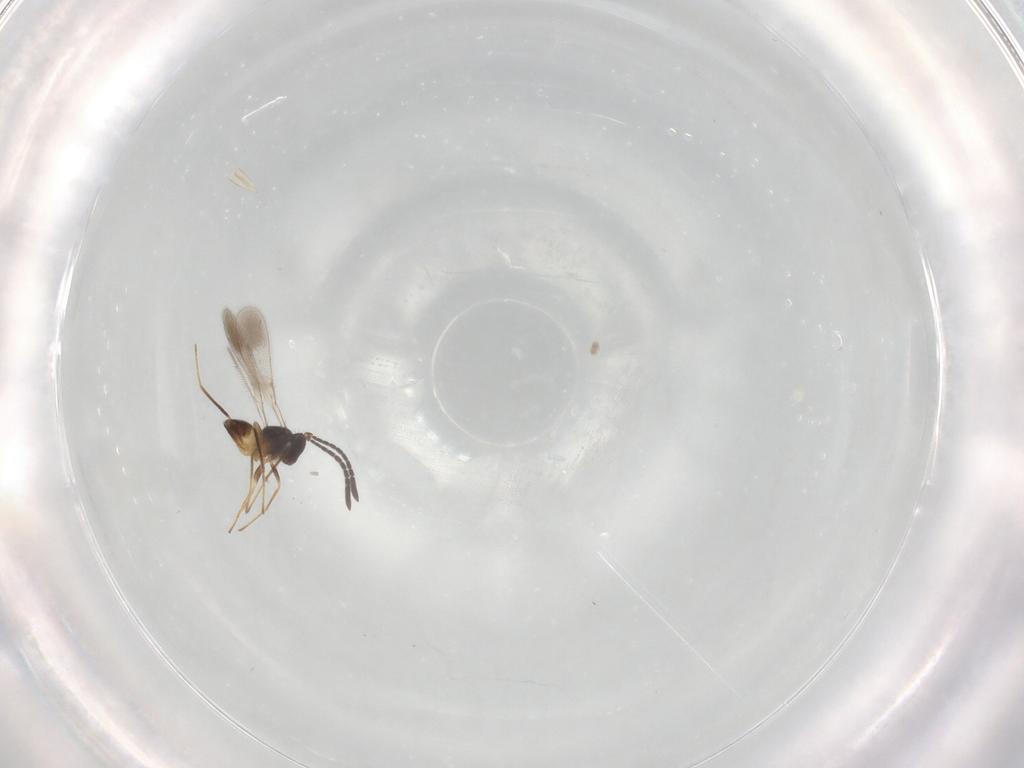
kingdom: Animalia
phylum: Arthropoda
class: Insecta
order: Hymenoptera
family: Mymaridae
